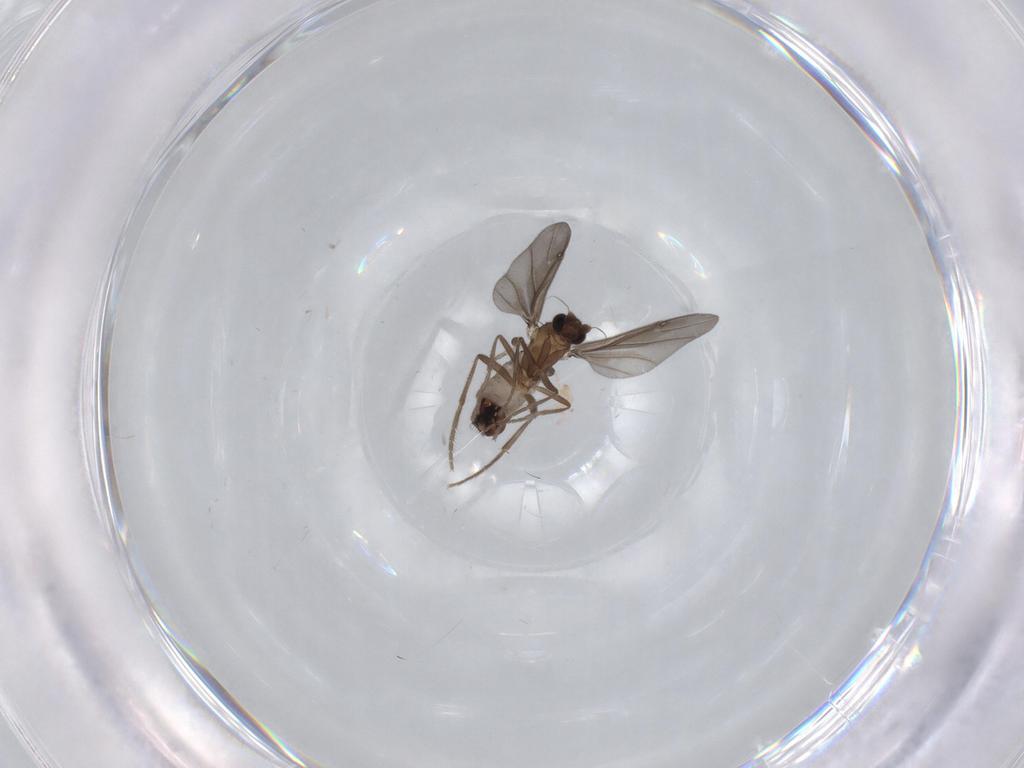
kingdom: Animalia
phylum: Arthropoda
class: Insecta
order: Diptera
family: Phoridae
